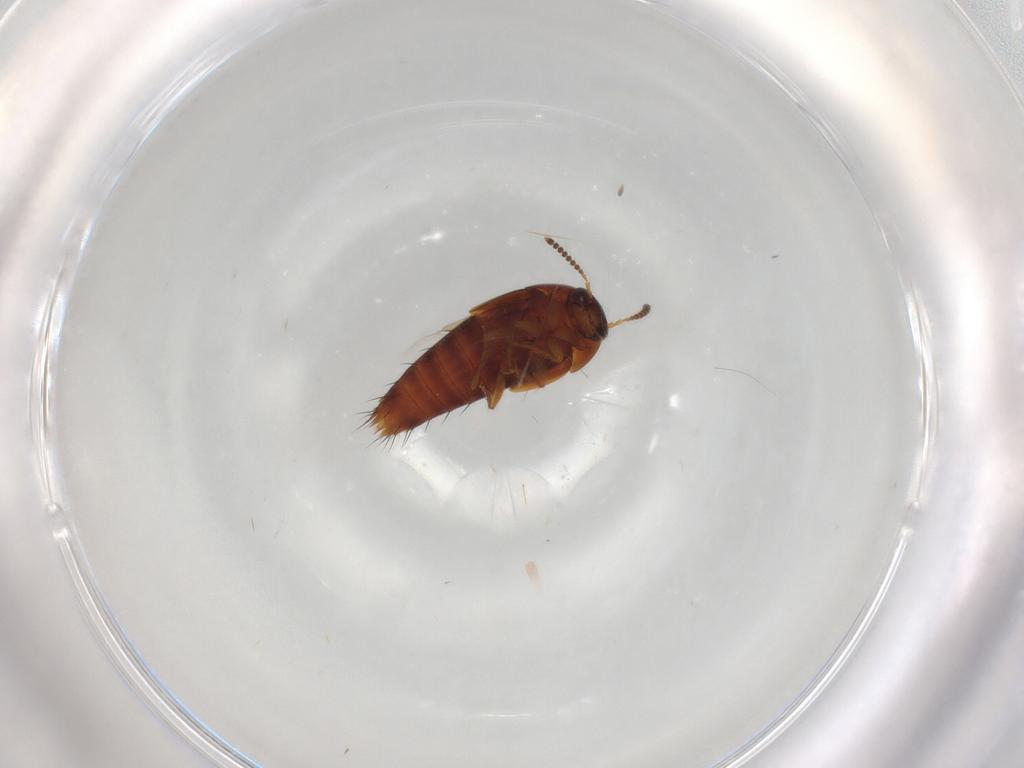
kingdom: Animalia
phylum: Arthropoda
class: Insecta
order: Coleoptera
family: Staphylinidae
